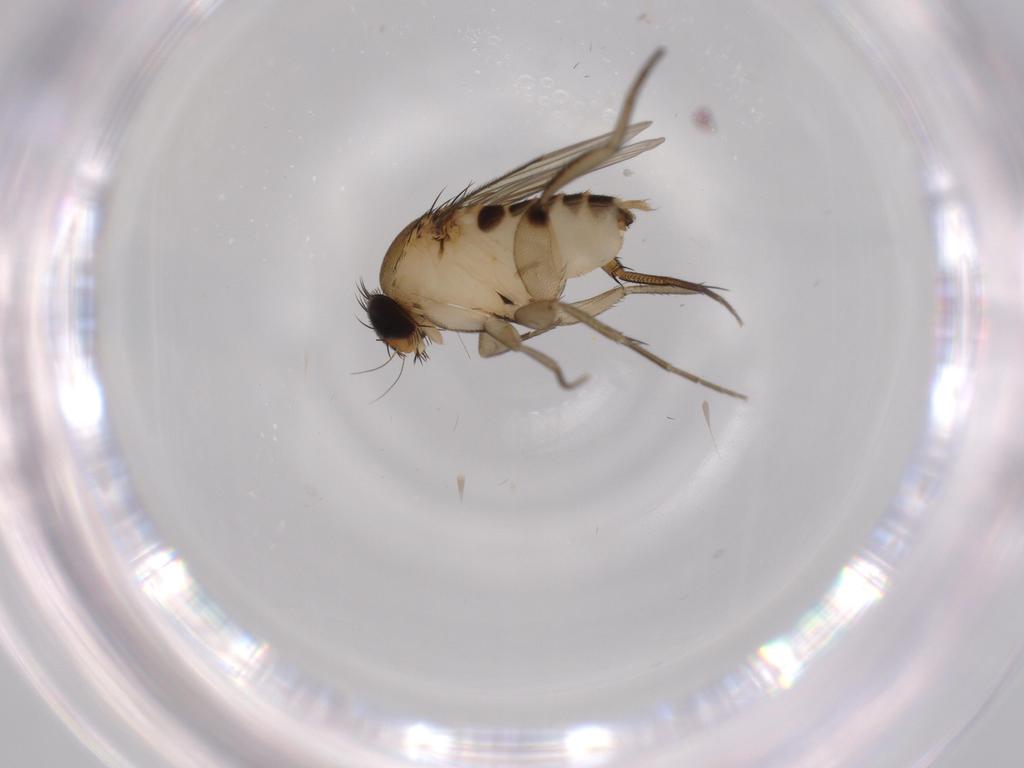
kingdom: Animalia
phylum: Arthropoda
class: Insecta
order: Diptera
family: Phoridae
